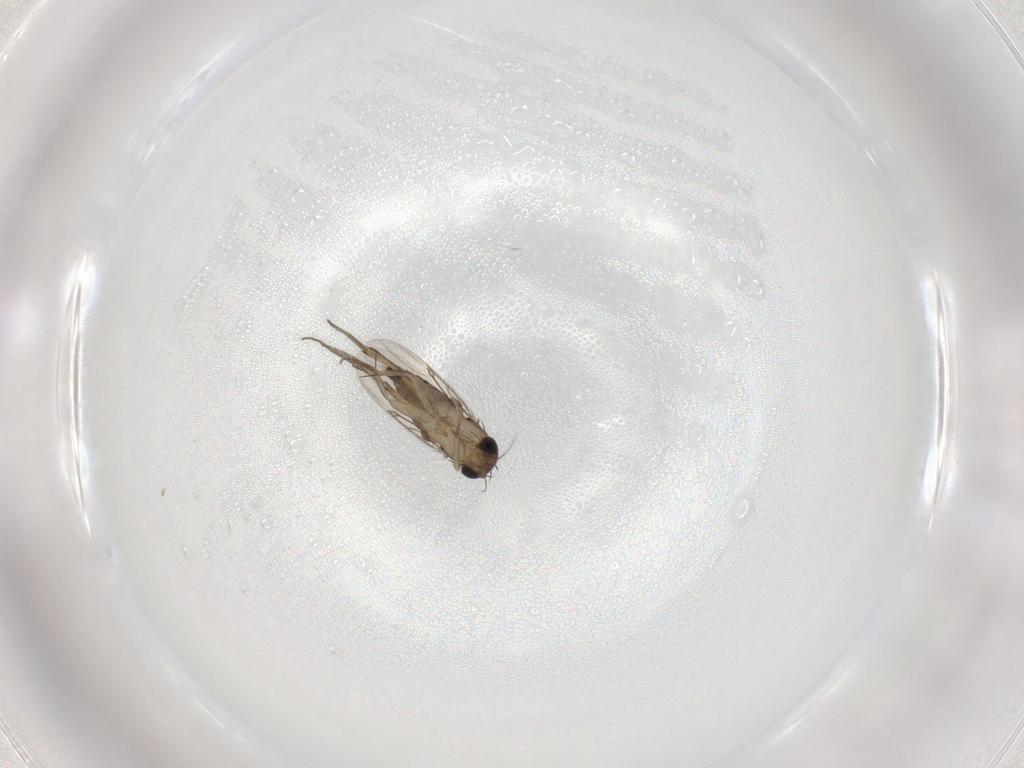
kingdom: Animalia
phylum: Arthropoda
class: Insecta
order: Diptera
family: Phoridae
